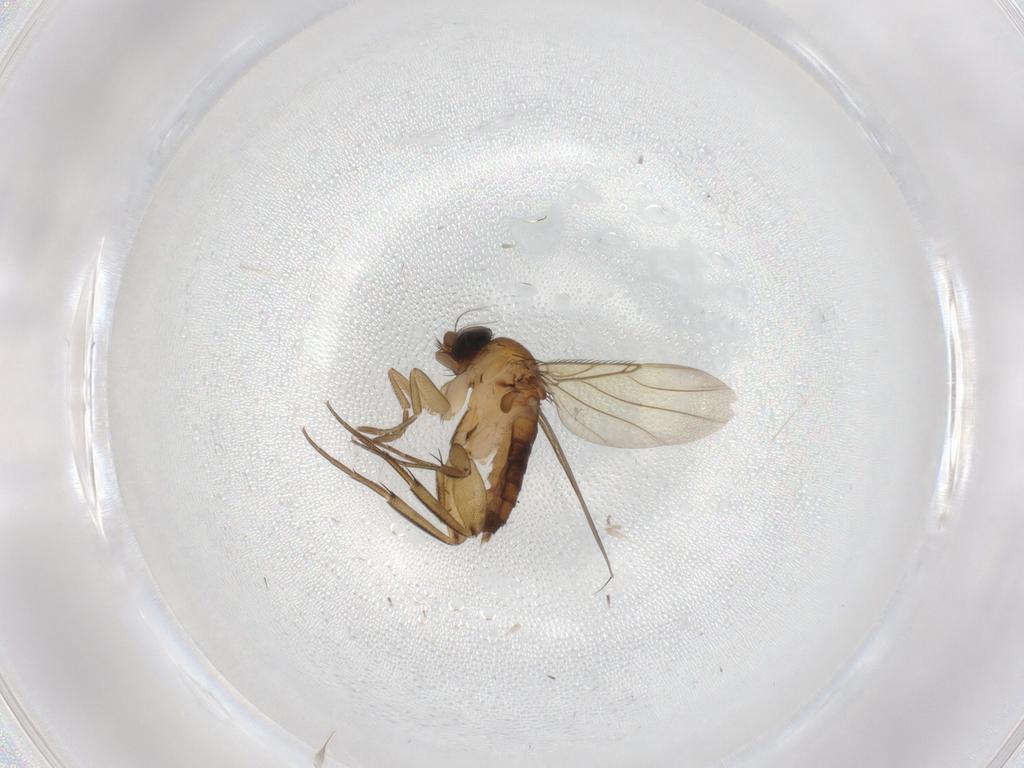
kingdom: Animalia
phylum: Arthropoda
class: Insecta
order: Diptera
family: Phoridae
